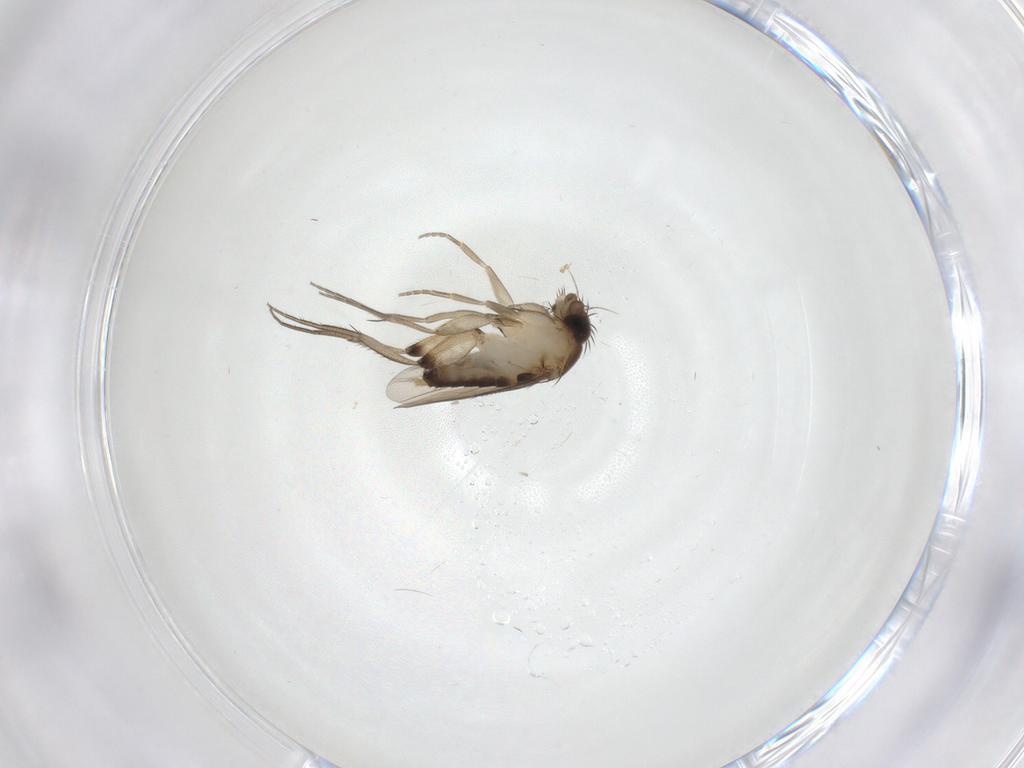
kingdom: Animalia
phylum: Arthropoda
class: Insecta
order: Diptera
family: Phoridae
